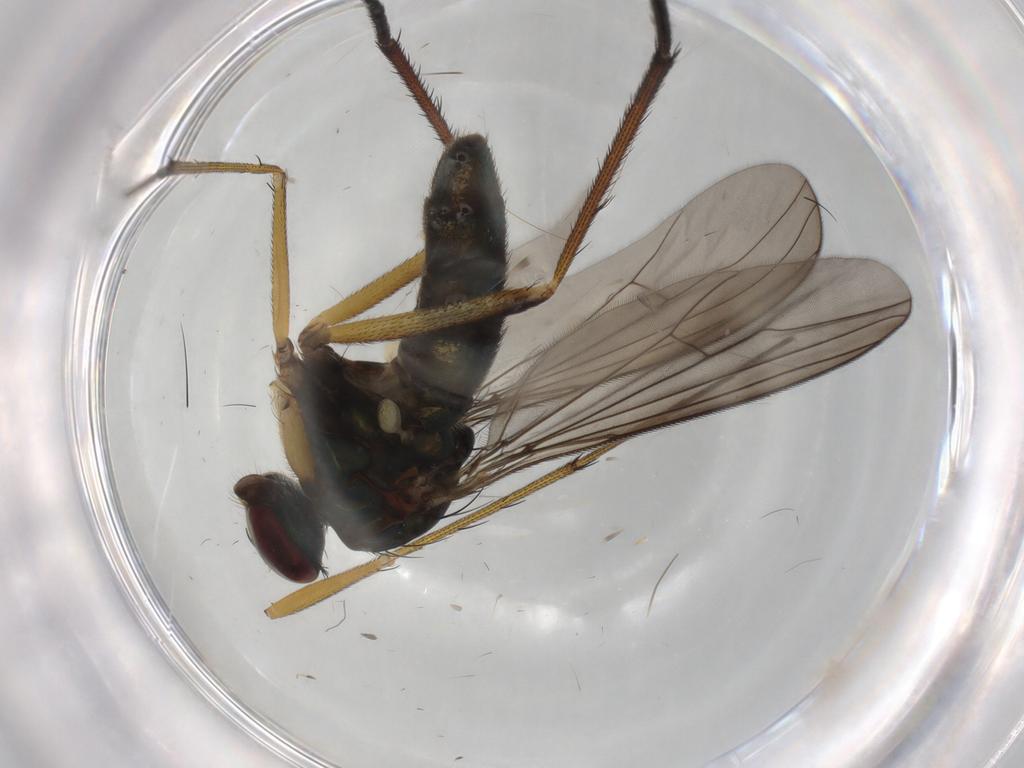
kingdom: Animalia
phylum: Arthropoda
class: Insecta
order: Diptera
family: Dolichopodidae
